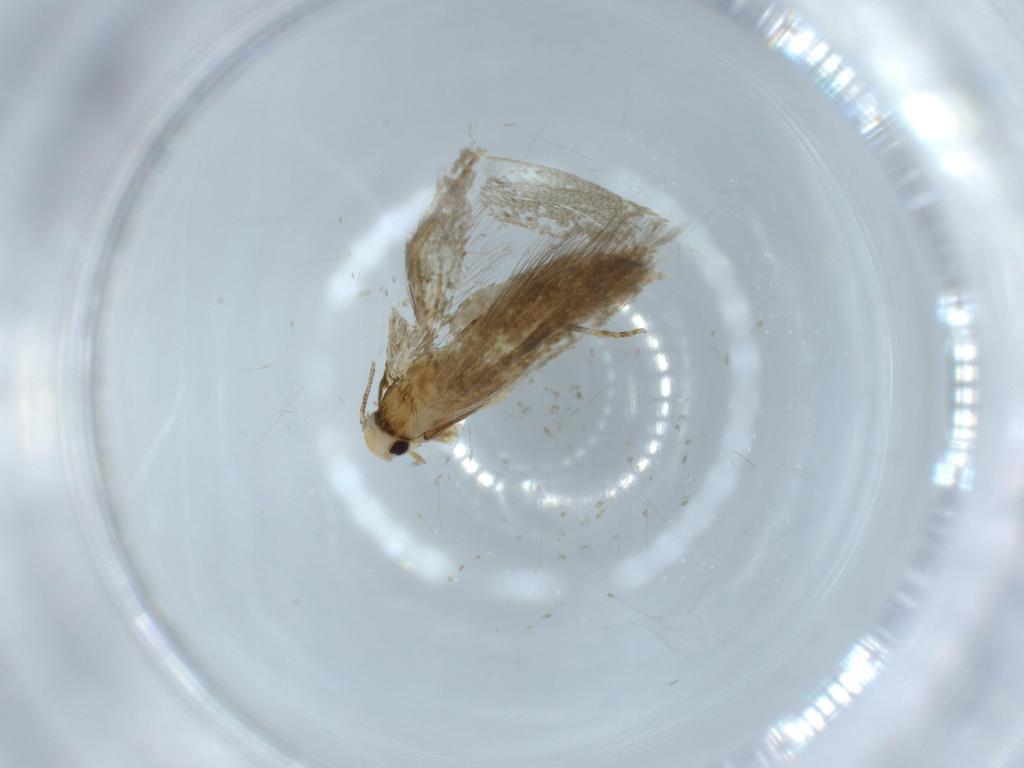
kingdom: Animalia
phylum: Arthropoda
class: Insecta
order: Lepidoptera
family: Tineidae
